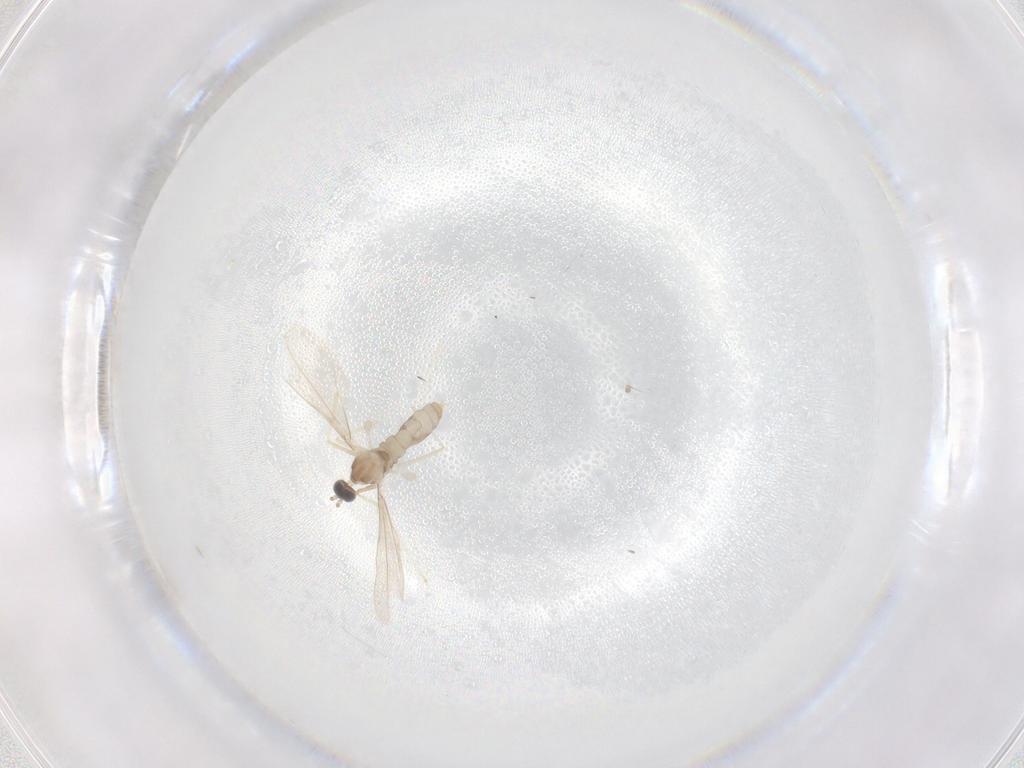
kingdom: Animalia
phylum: Arthropoda
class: Insecta
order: Diptera
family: Cecidomyiidae
